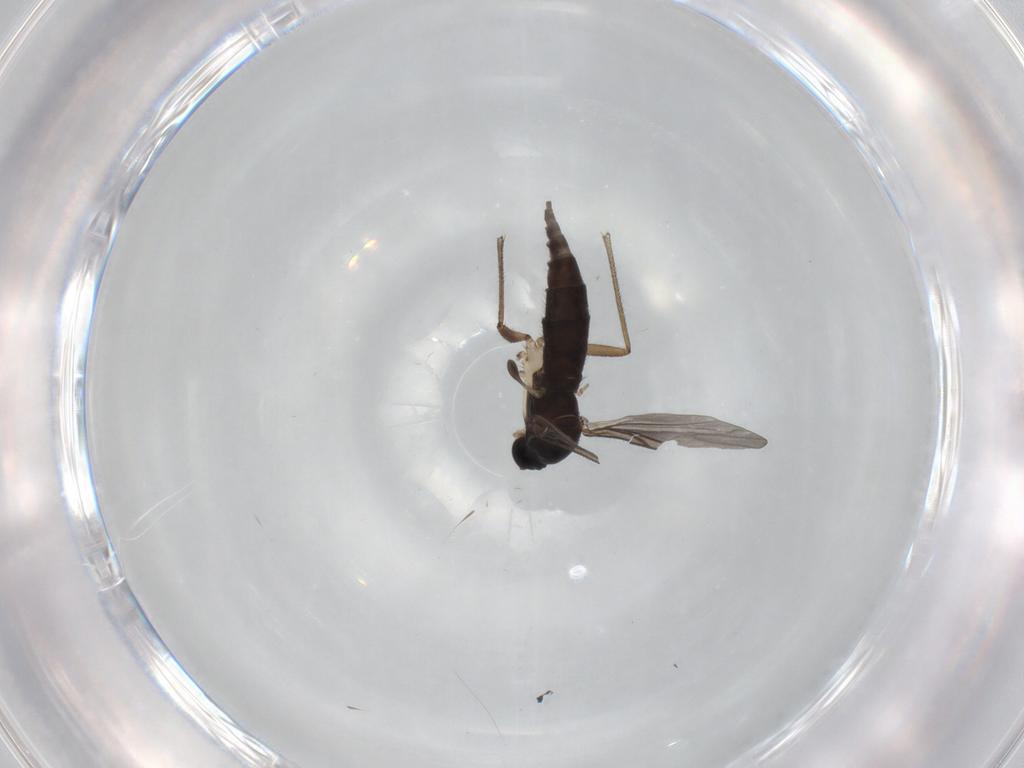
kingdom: Animalia
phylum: Arthropoda
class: Insecta
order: Diptera
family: Sciaridae
